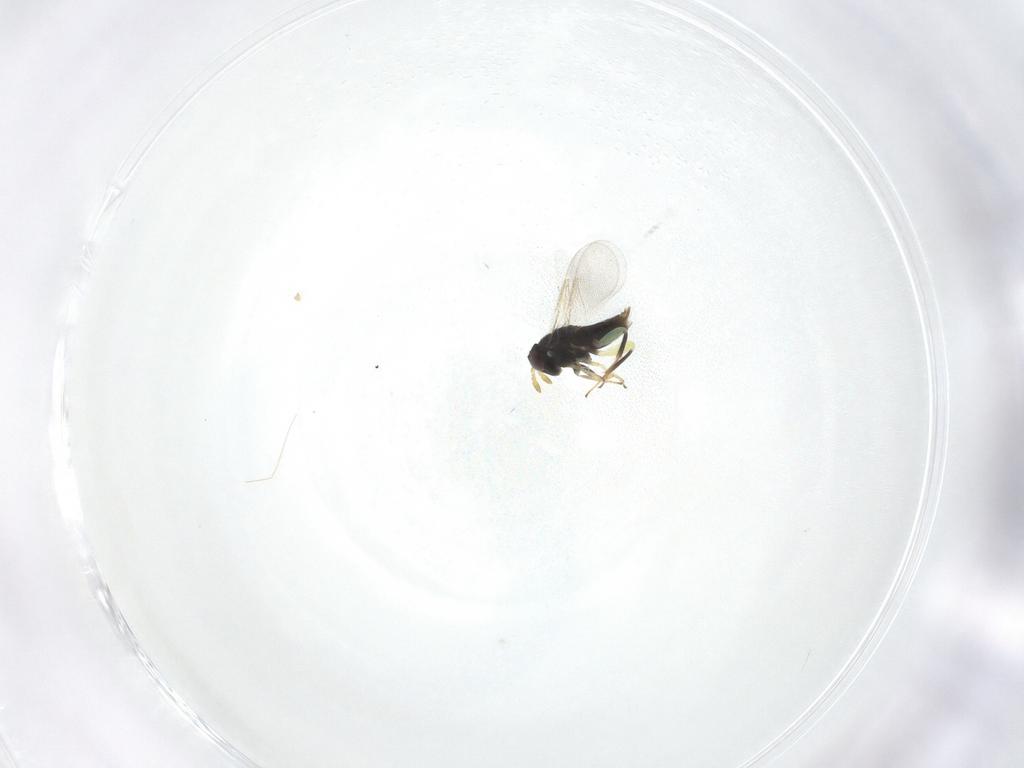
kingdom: Animalia
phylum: Arthropoda
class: Insecta
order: Hymenoptera
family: Aphelinidae
